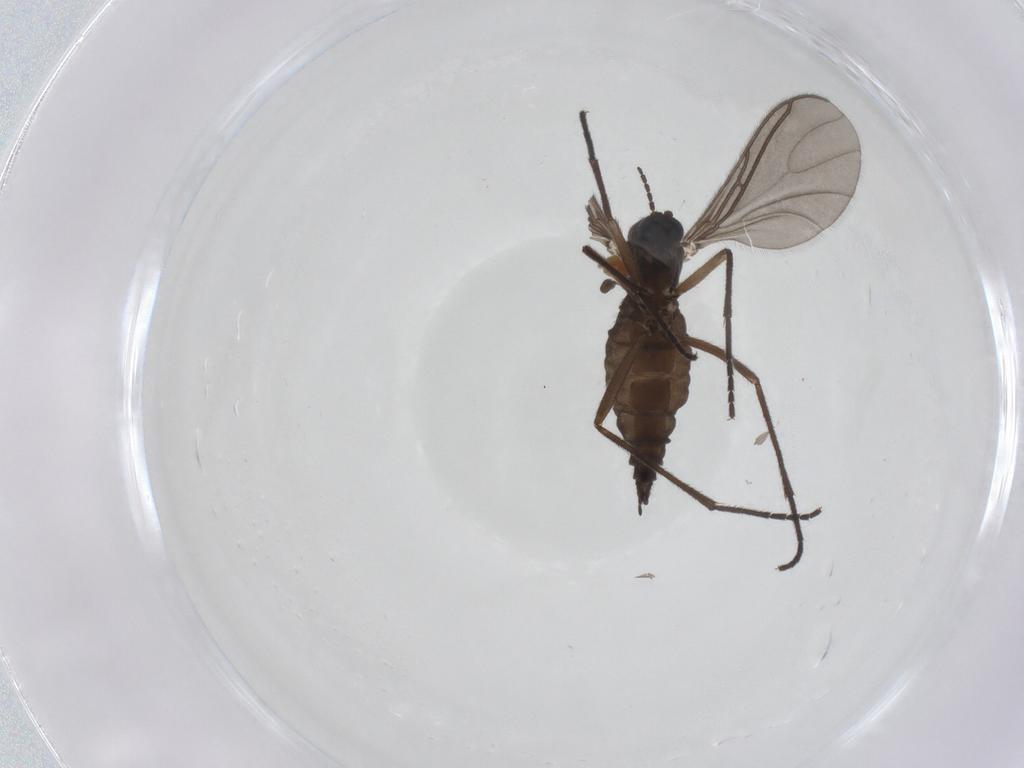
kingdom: Animalia
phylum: Arthropoda
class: Insecta
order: Diptera
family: Sciaridae
